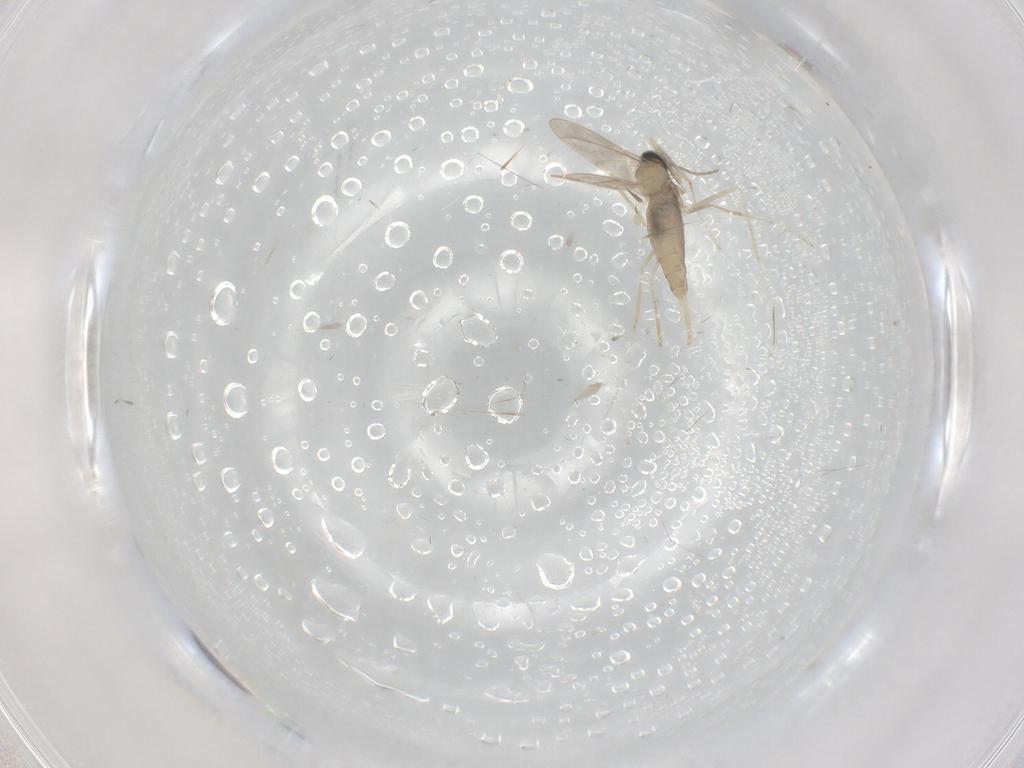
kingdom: Animalia
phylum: Arthropoda
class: Insecta
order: Diptera
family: Cecidomyiidae
